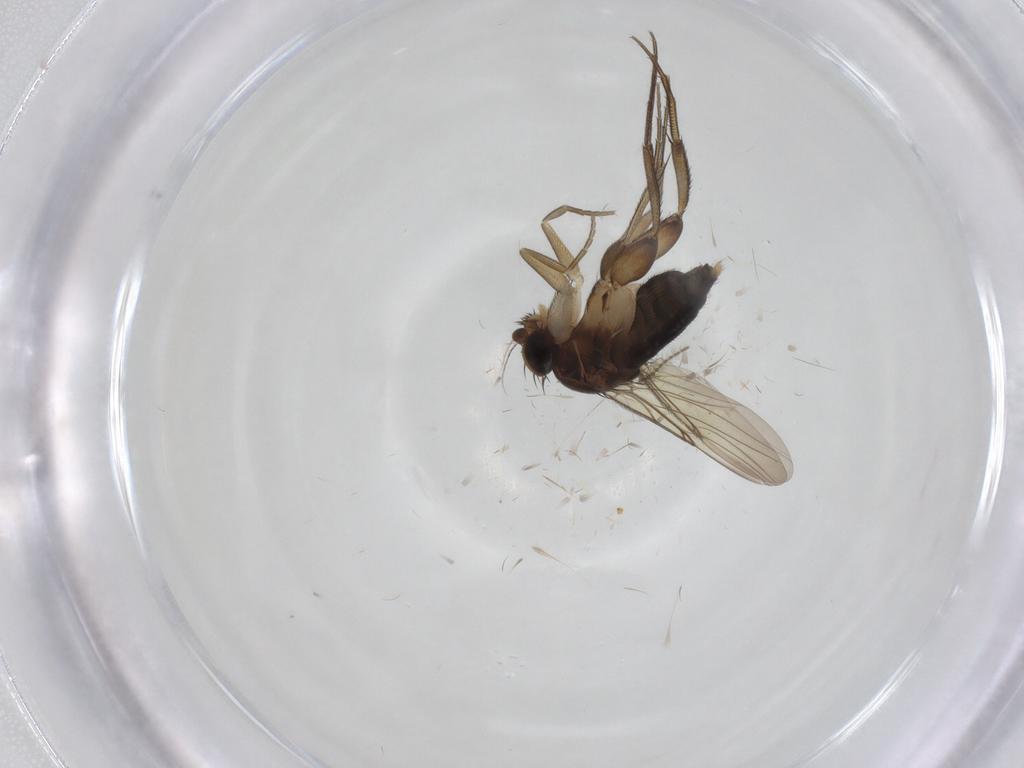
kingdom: Animalia
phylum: Arthropoda
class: Insecta
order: Diptera
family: Phoridae
